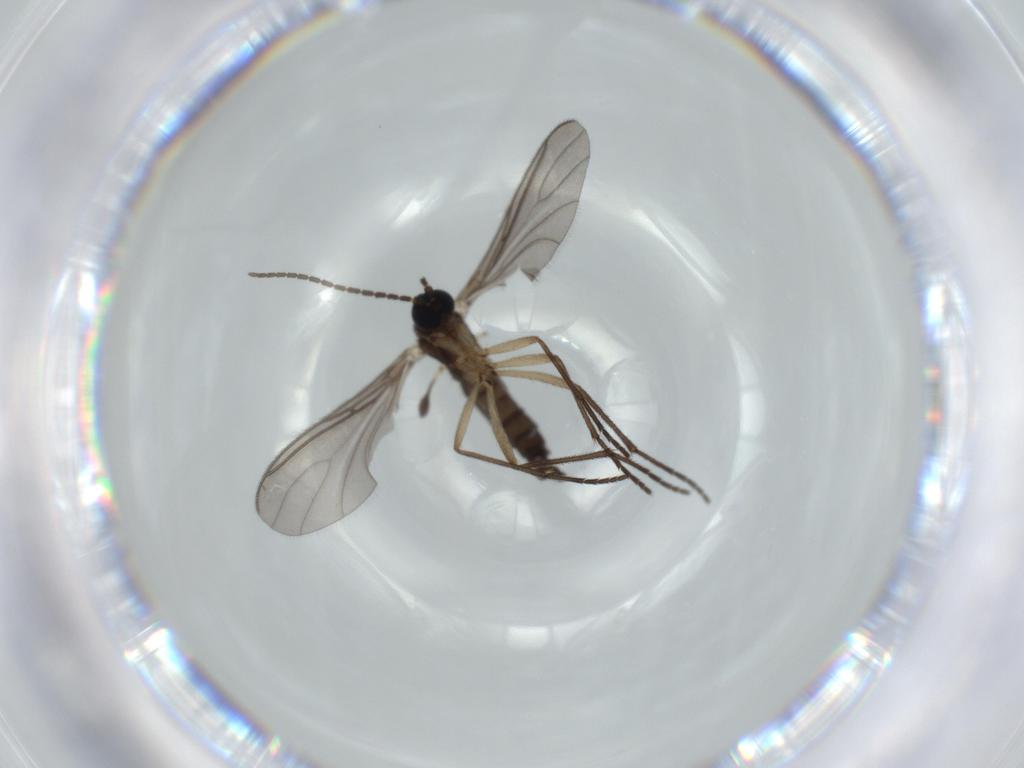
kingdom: Animalia
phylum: Arthropoda
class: Insecta
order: Diptera
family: Sciaridae
